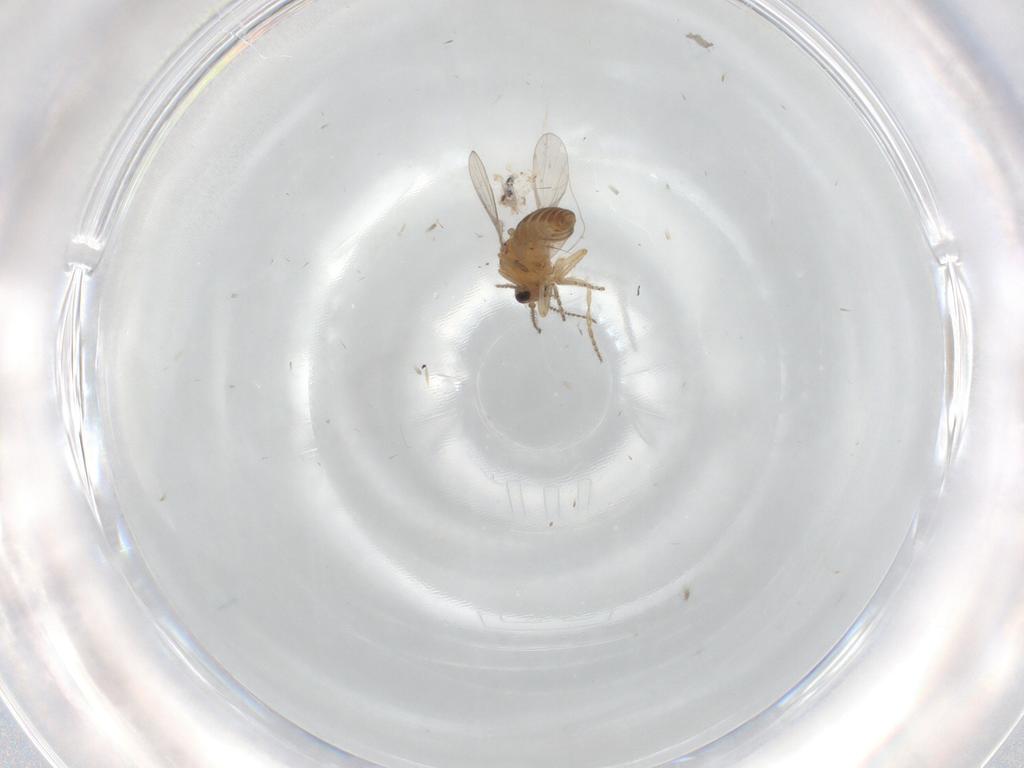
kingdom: Animalia
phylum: Arthropoda
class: Insecta
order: Diptera
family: Ceratopogonidae
